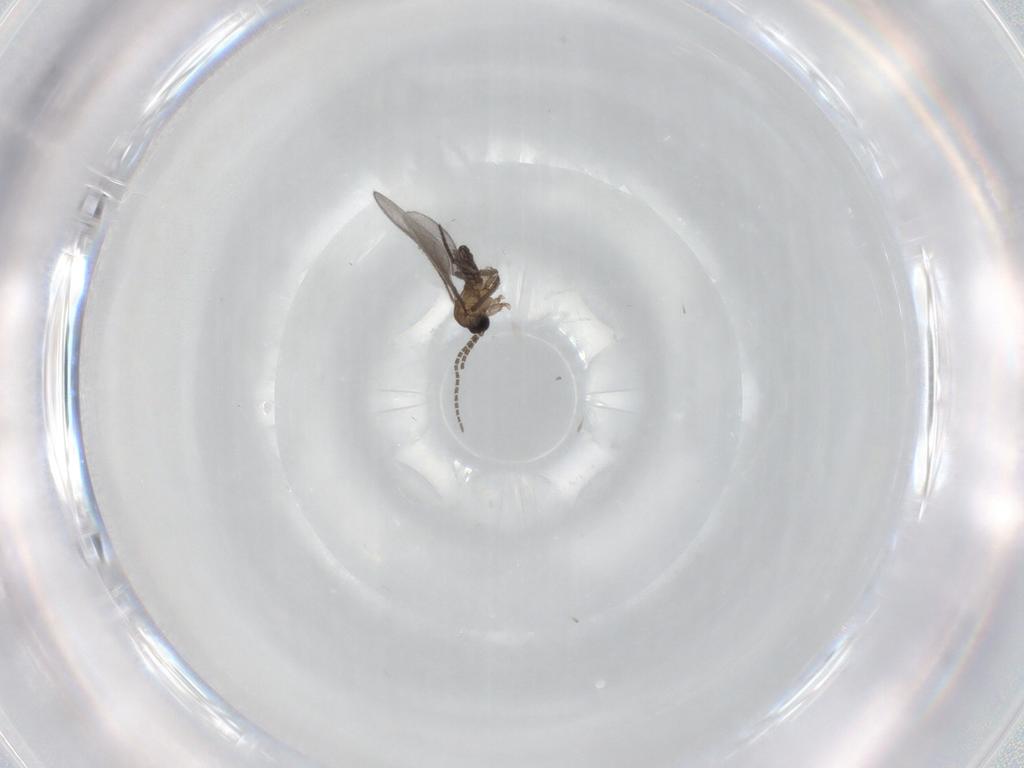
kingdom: Animalia
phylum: Arthropoda
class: Insecta
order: Diptera
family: Sciaridae
